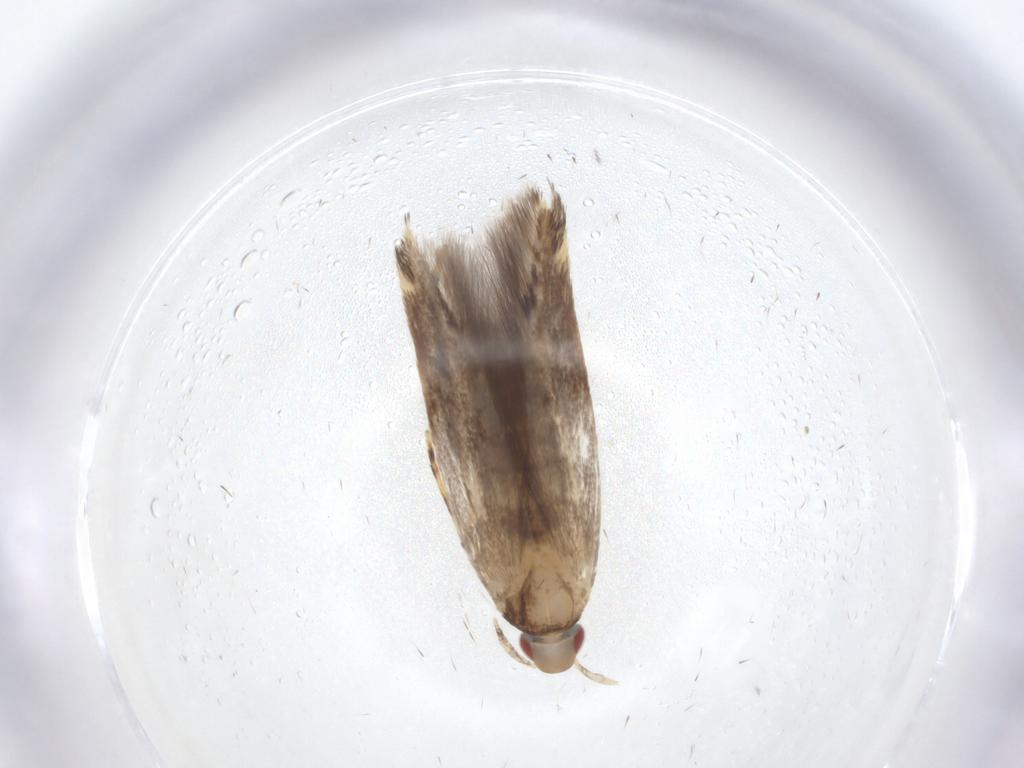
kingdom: Animalia
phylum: Arthropoda
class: Insecta
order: Lepidoptera
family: Cosmopterigidae
